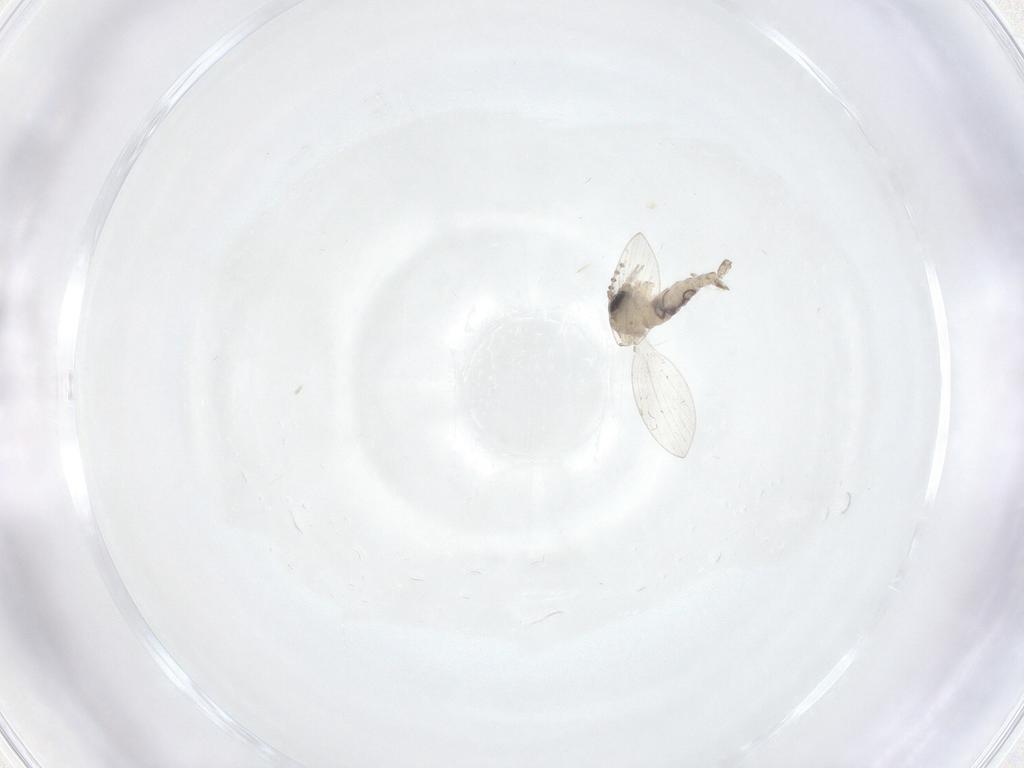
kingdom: Animalia
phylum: Arthropoda
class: Insecta
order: Diptera
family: Psychodidae
